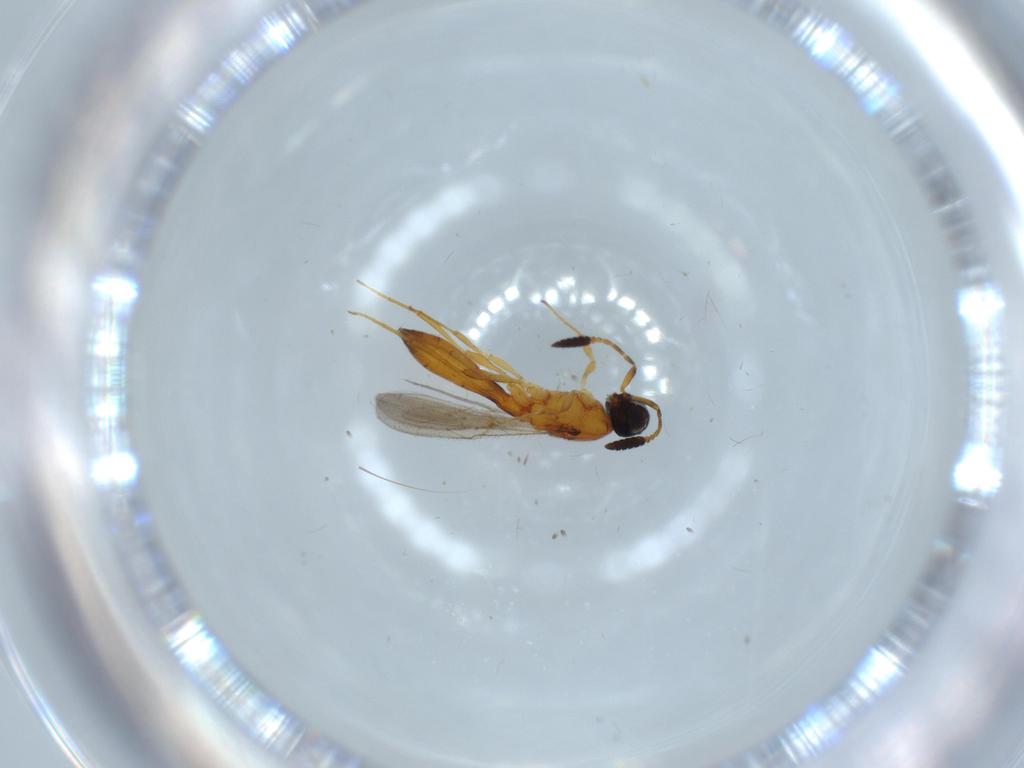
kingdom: Animalia
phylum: Arthropoda
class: Insecta
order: Hymenoptera
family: Scelionidae
